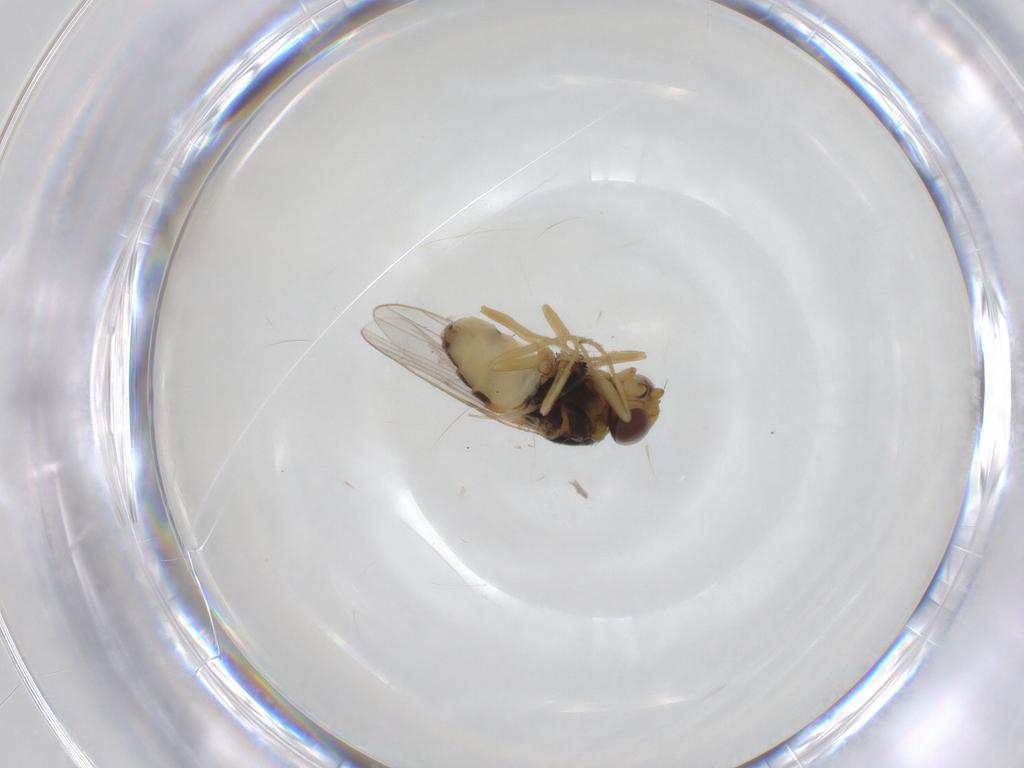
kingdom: Animalia
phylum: Arthropoda
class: Insecta
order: Diptera
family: Chloropidae
